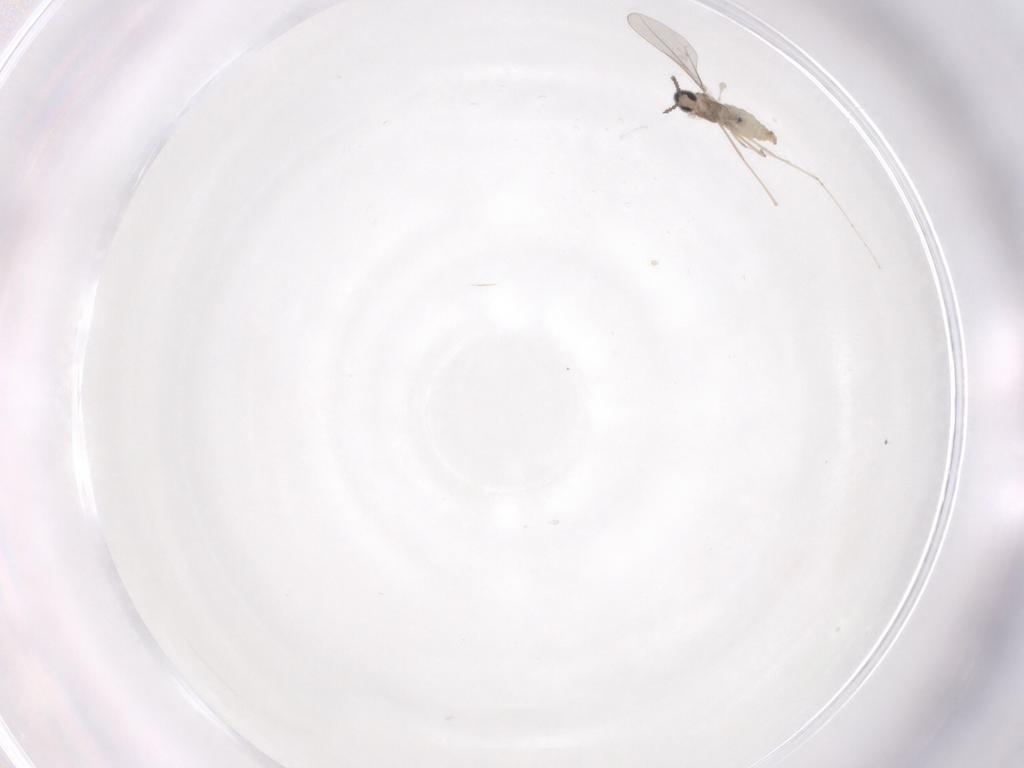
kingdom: Animalia
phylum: Arthropoda
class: Insecta
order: Diptera
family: Cecidomyiidae
